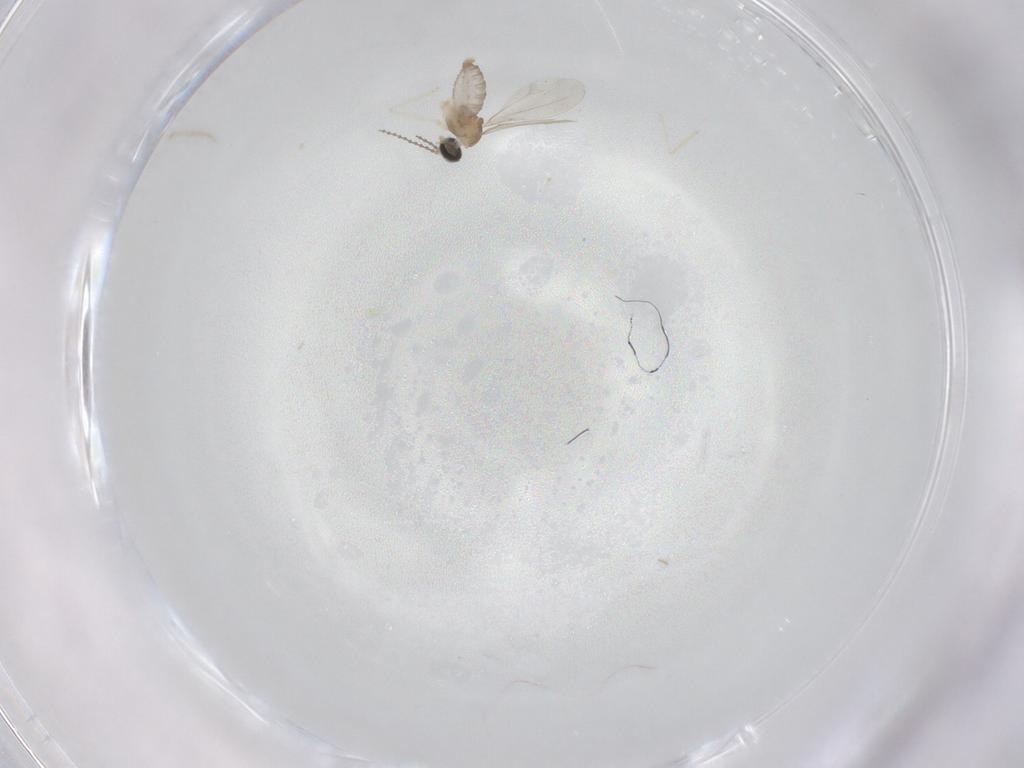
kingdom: Animalia
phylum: Arthropoda
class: Insecta
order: Diptera
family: Cecidomyiidae
